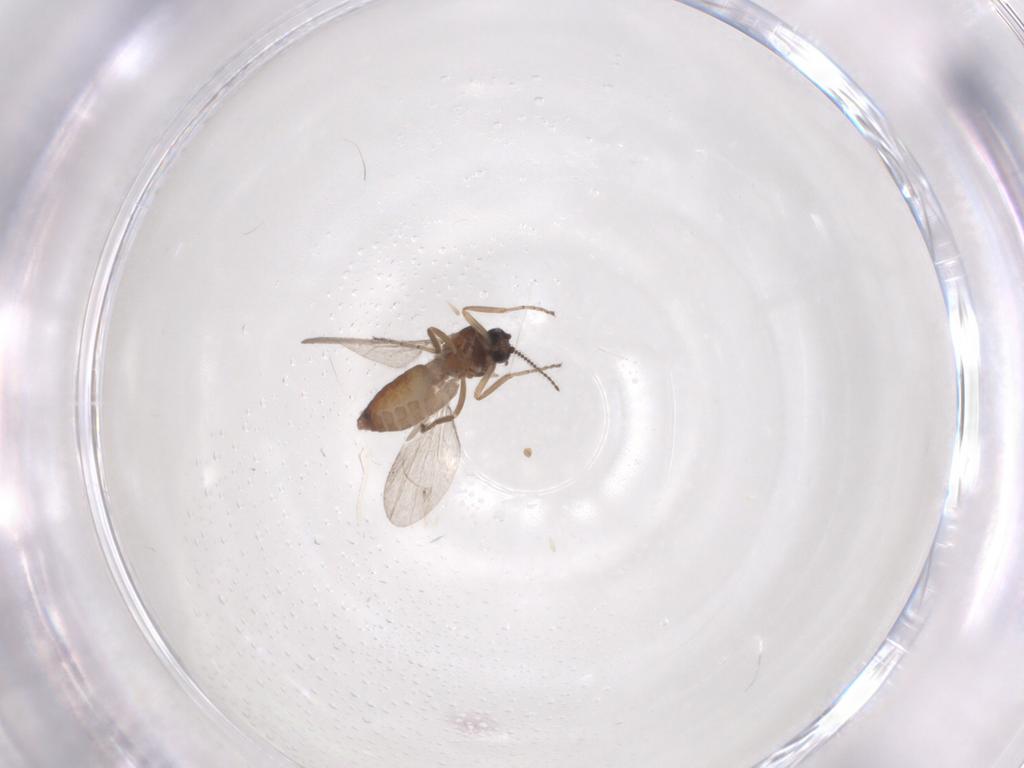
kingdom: Animalia
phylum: Arthropoda
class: Insecta
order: Diptera
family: Ceratopogonidae
